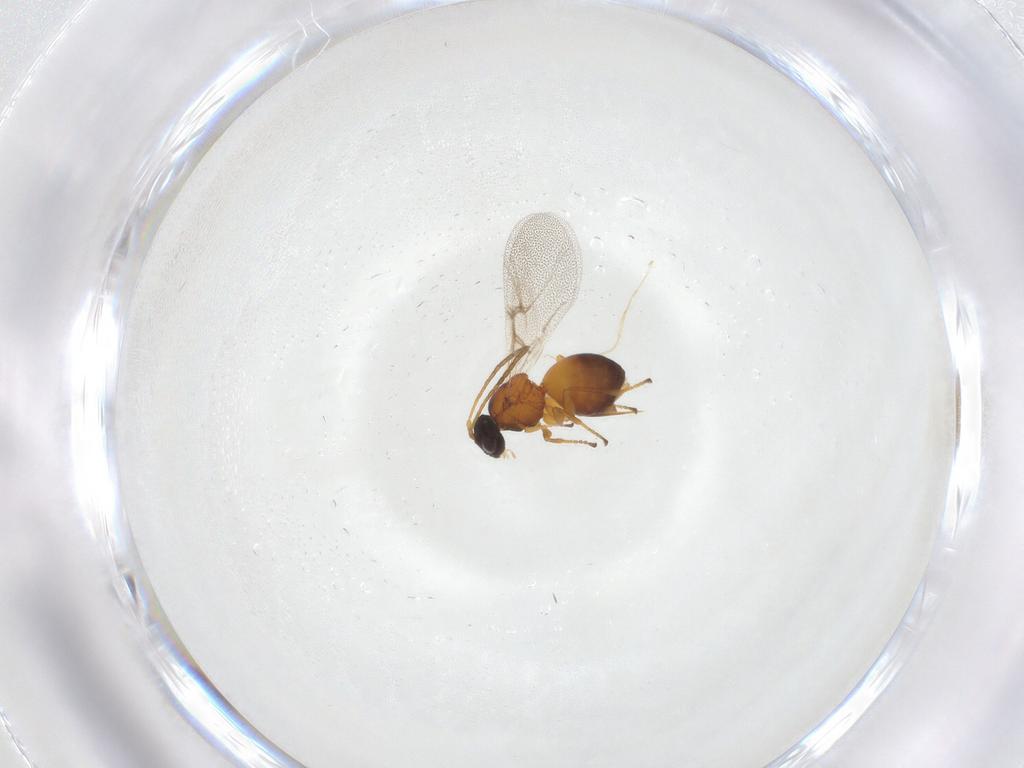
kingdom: Animalia
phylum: Arthropoda
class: Insecta
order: Hymenoptera
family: Cynipidae
